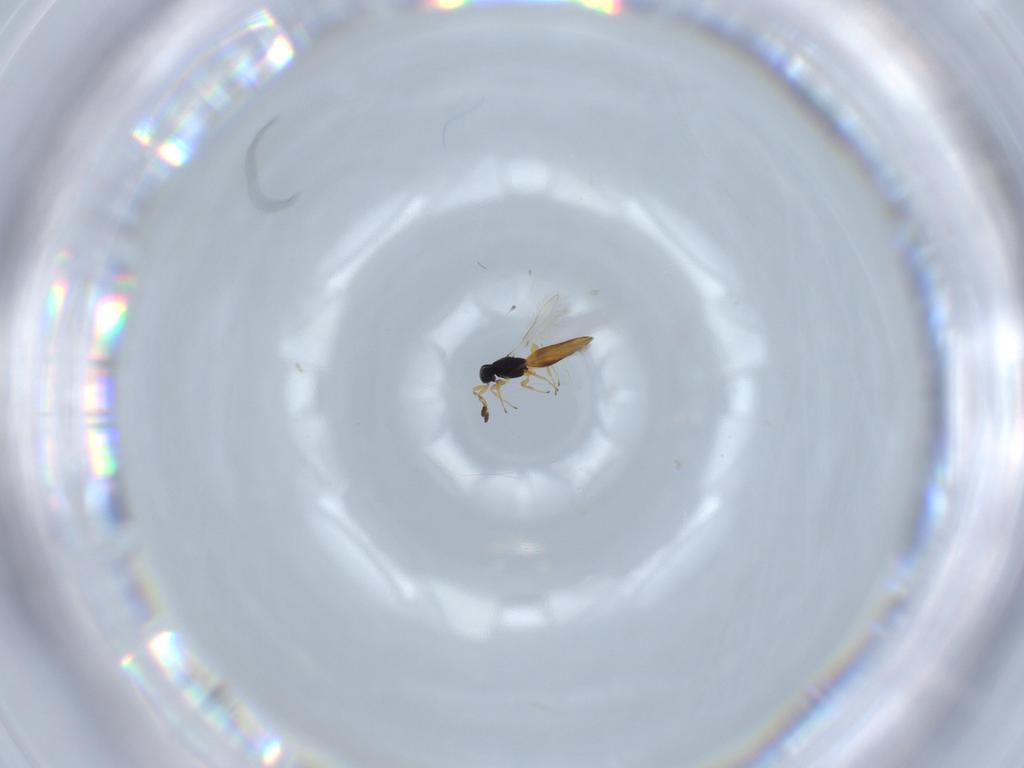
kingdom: Animalia
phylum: Arthropoda
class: Insecta
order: Hymenoptera
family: Scelionidae
